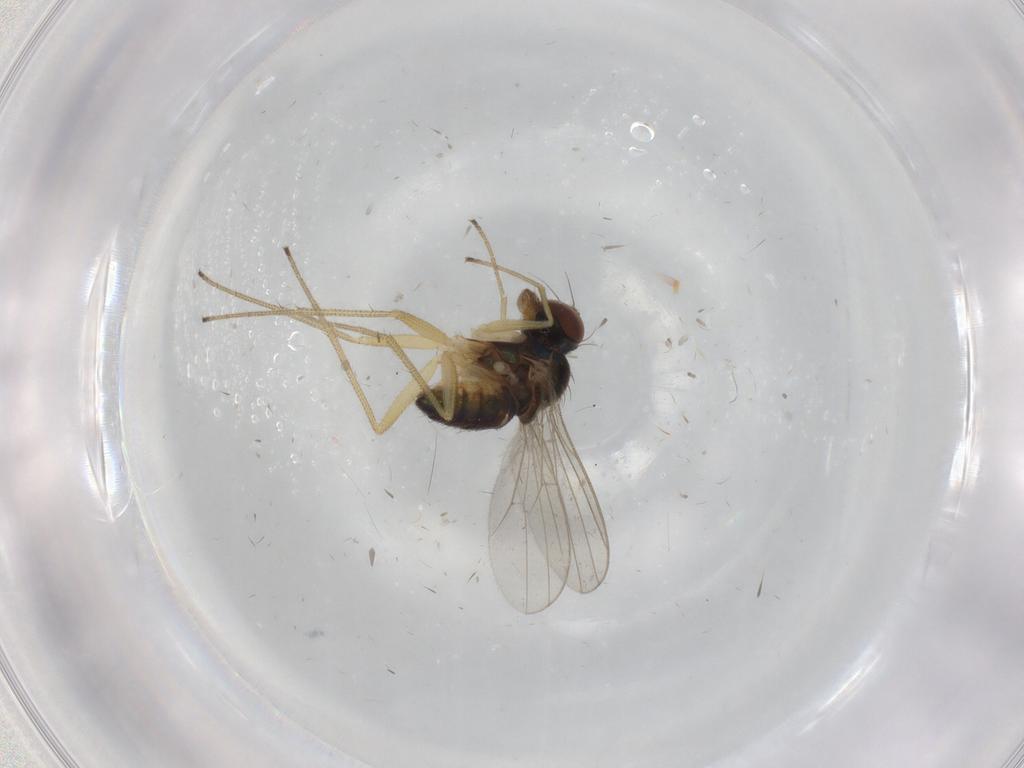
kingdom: Animalia
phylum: Arthropoda
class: Insecta
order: Diptera
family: Dolichopodidae
